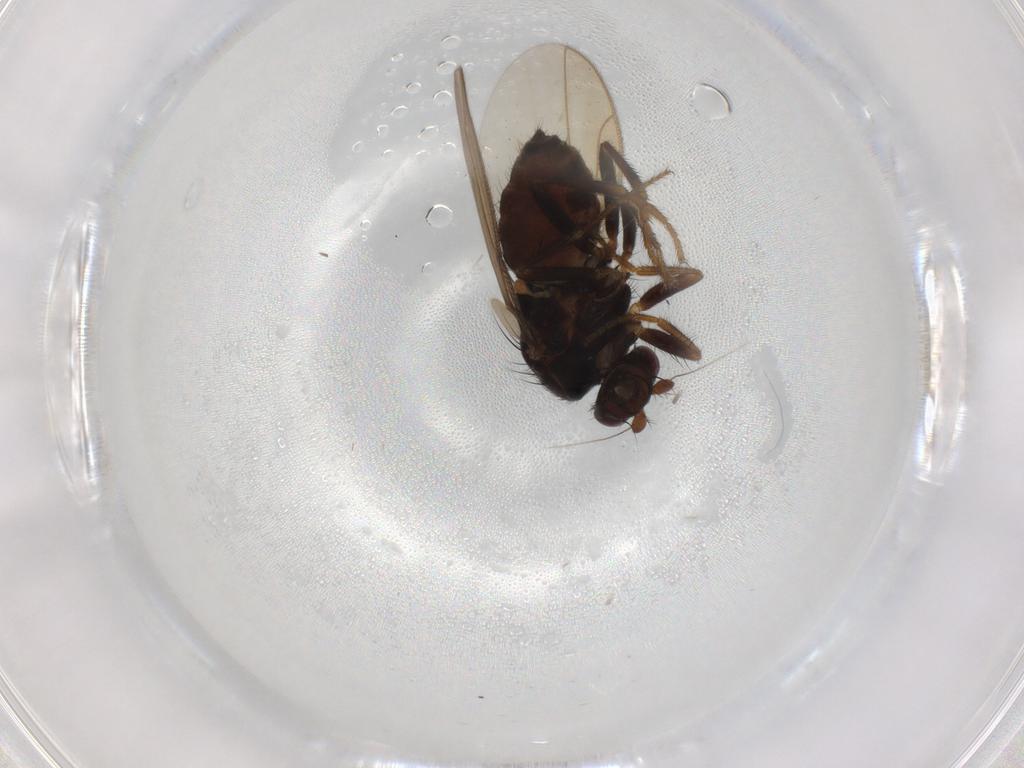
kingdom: Animalia
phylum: Arthropoda
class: Insecta
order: Diptera
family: Sphaeroceridae
